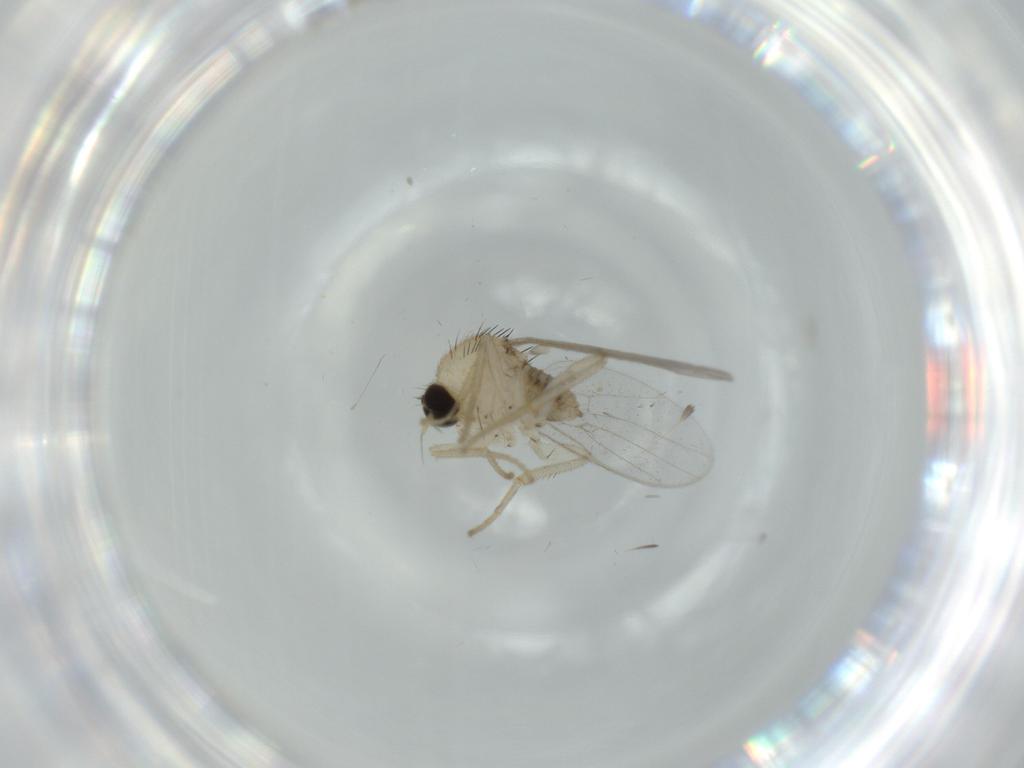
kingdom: Animalia
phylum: Arthropoda
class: Insecta
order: Diptera
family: Hybotidae
